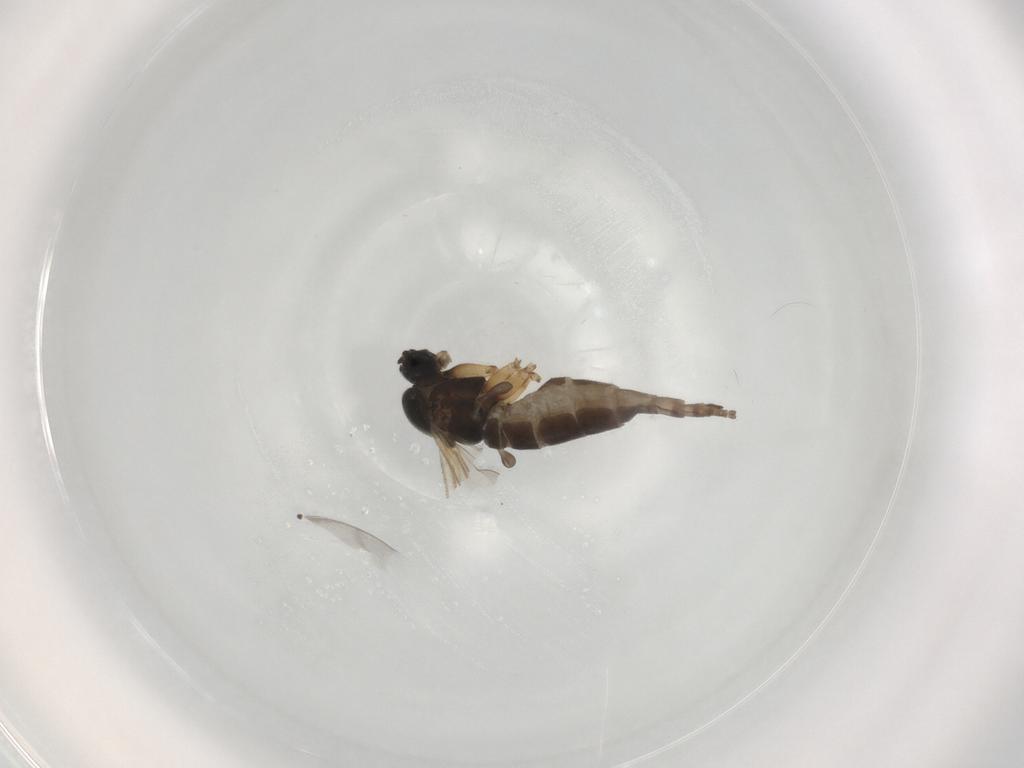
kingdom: Animalia
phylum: Arthropoda
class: Insecta
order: Diptera
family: Sciaridae
